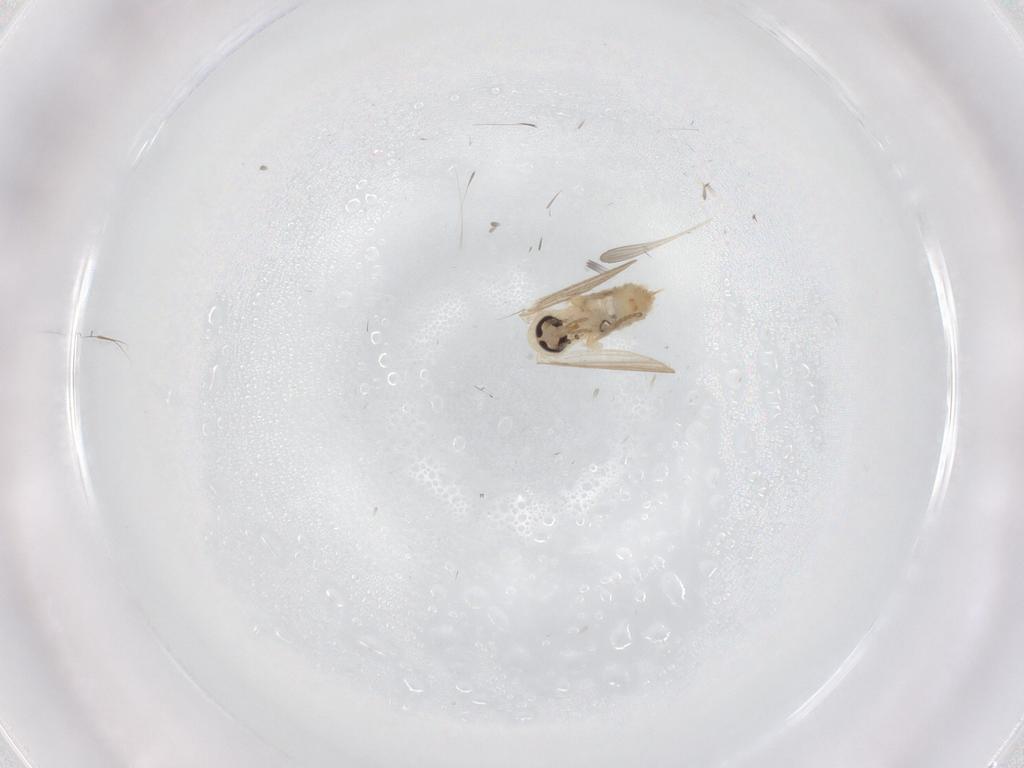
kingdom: Animalia
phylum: Arthropoda
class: Insecta
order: Diptera
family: Psychodidae
